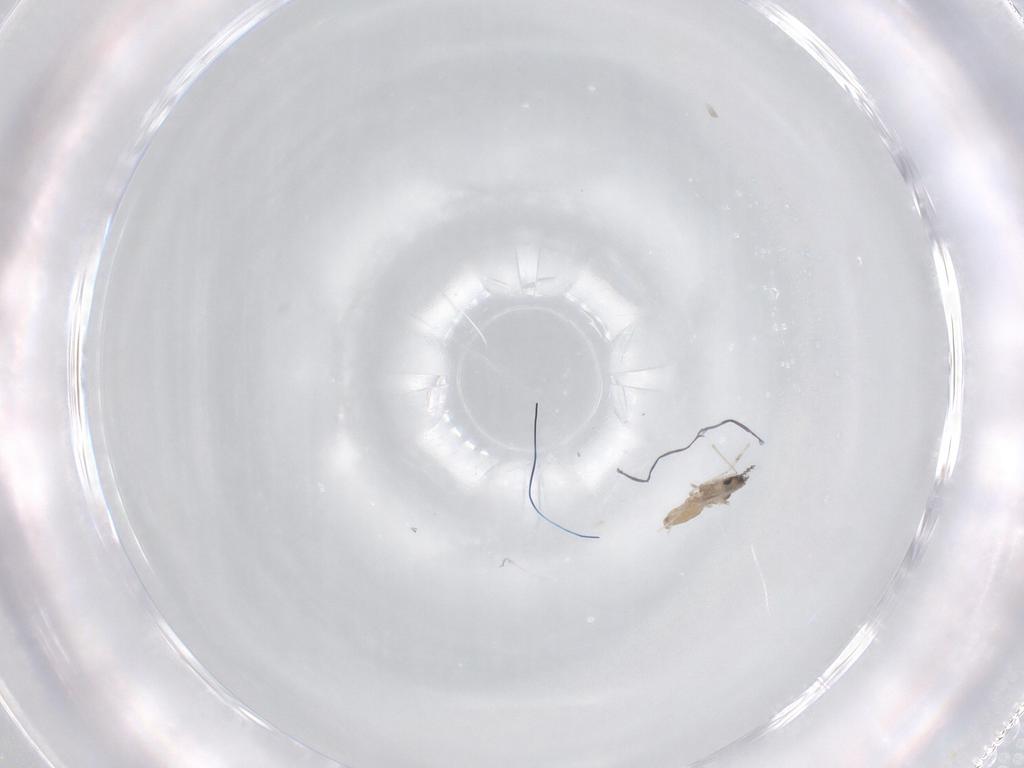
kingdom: Animalia
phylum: Arthropoda
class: Insecta
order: Diptera
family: Cecidomyiidae
